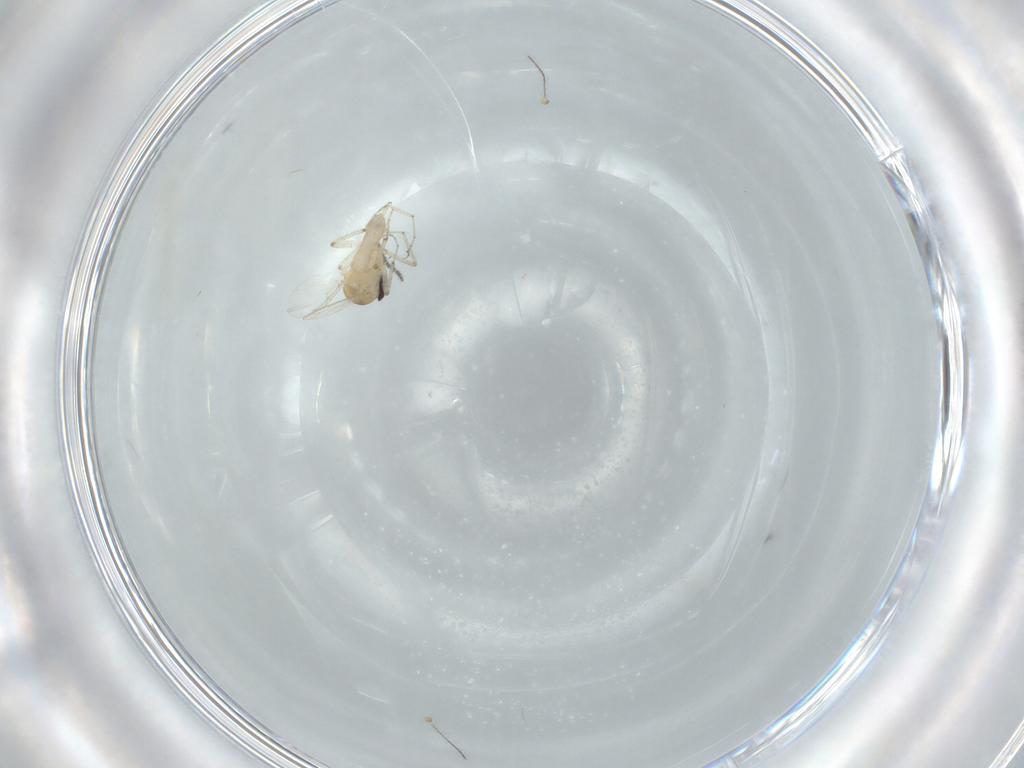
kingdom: Animalia
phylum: Arthropoda
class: Insecta
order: Diptera
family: Ceratopogonidae
